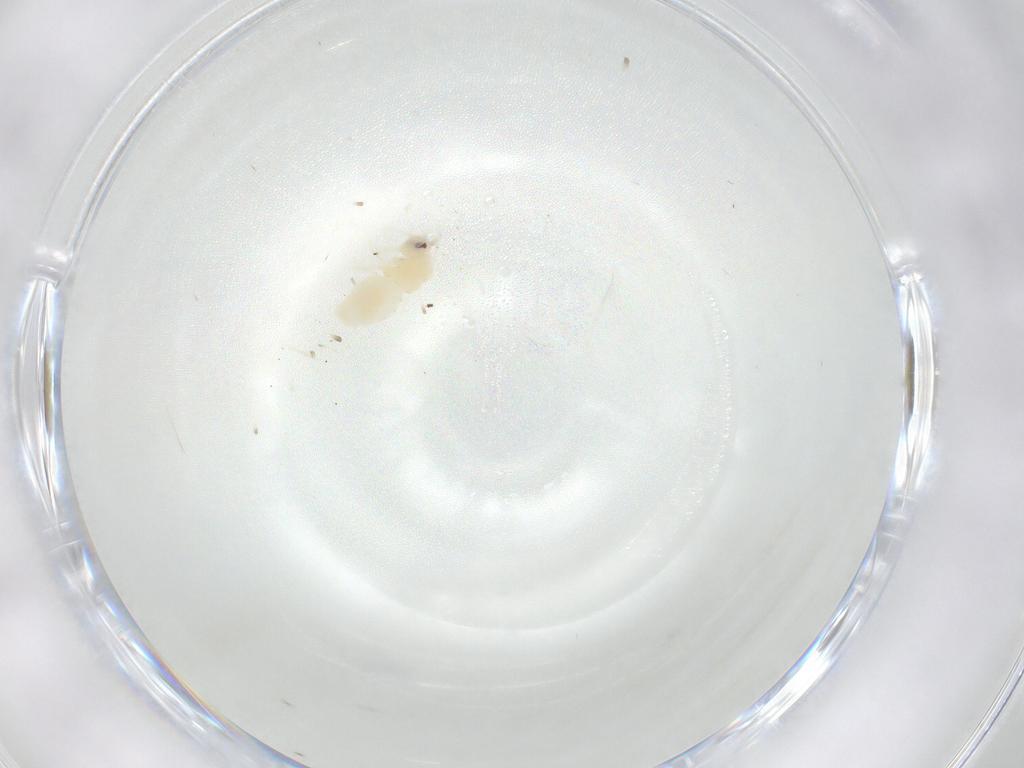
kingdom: Animalia
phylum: Arthropoda
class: Insecta
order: Hemiptera
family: Aleyrodidae
